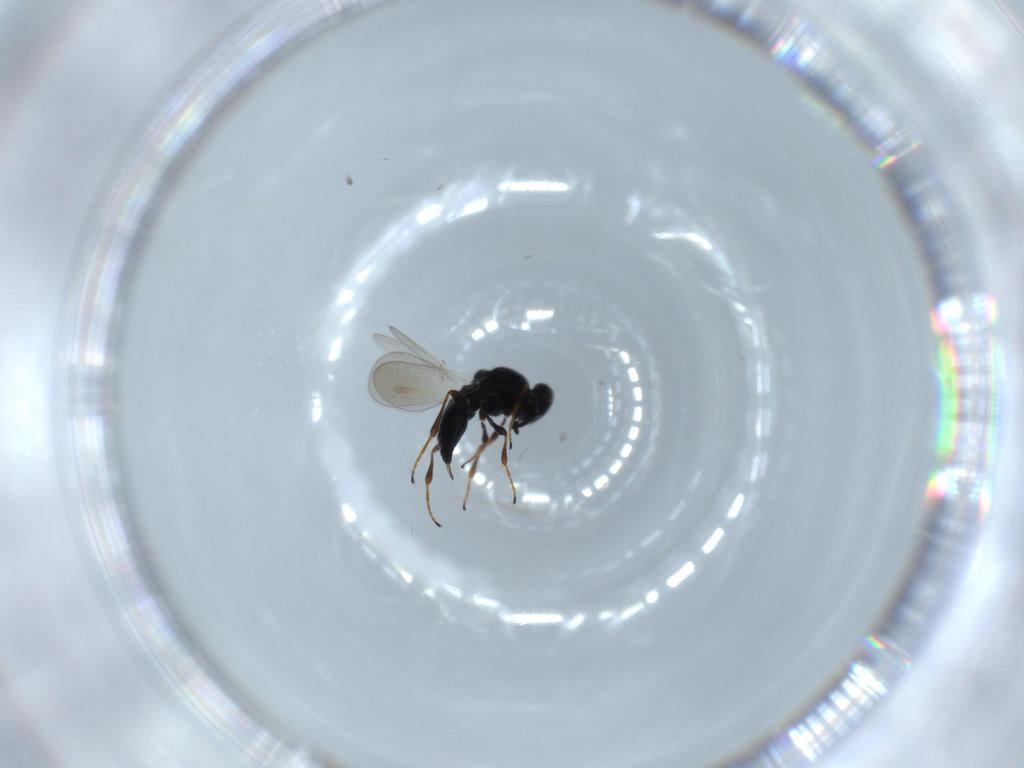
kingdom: Animalia
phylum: Arthropoda
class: Insecta
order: Hymenoptera
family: Platygastridae
